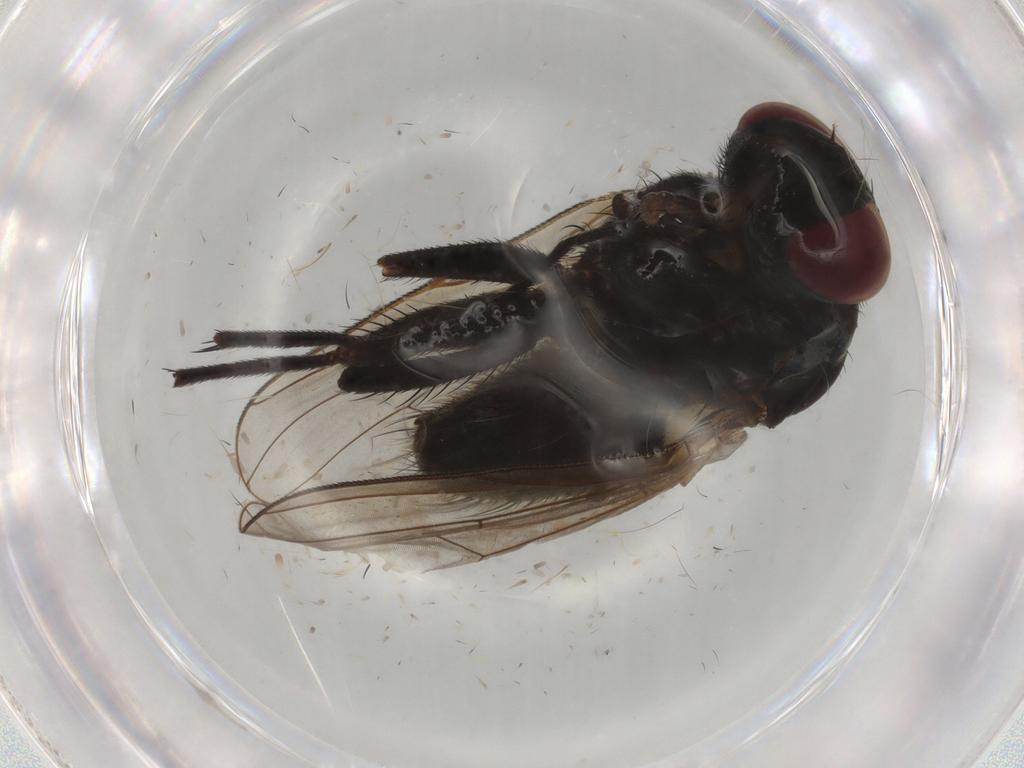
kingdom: Animalia
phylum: Arthropoda
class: Insecta
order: Diptera
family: Muscidae
